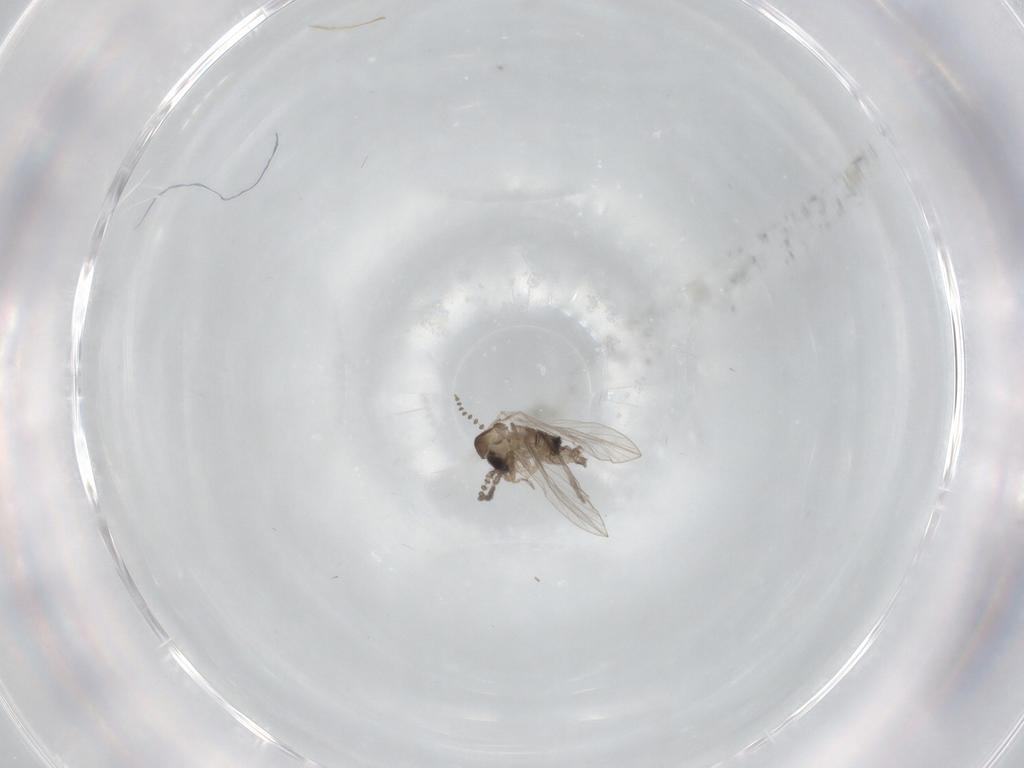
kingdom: Animalia
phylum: Arthropoda
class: Insecta
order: Diptera
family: Psychodidae
